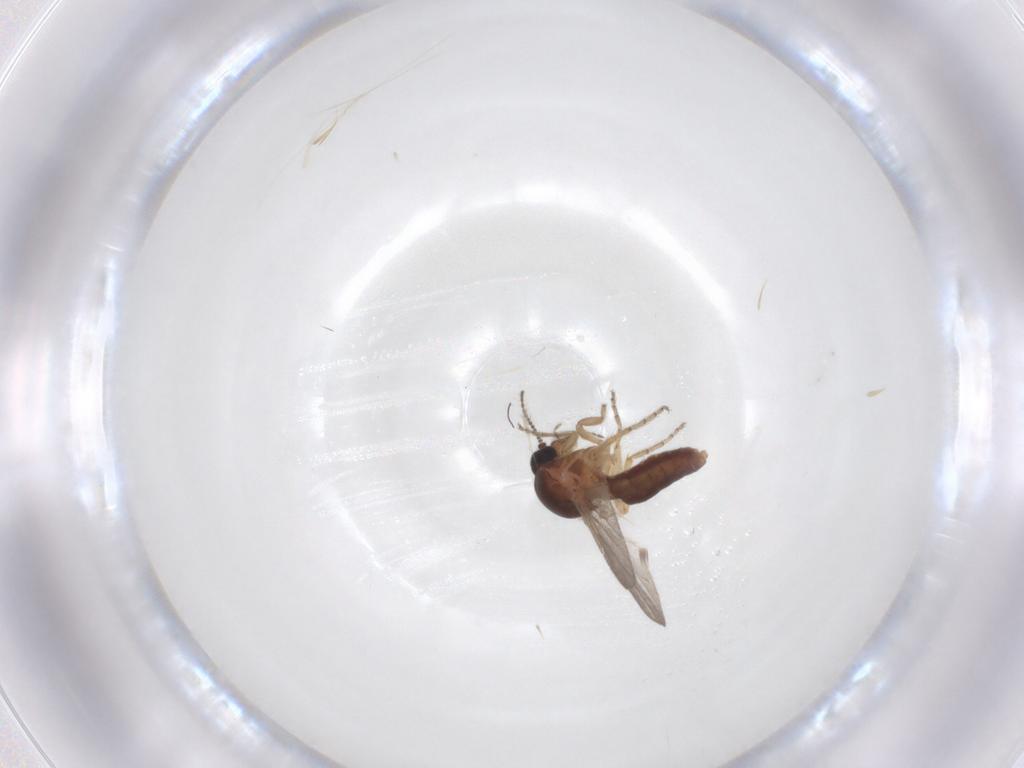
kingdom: Animalia
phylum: Arthropoda
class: Insecta
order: Diptera
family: Ceratopogonidae
